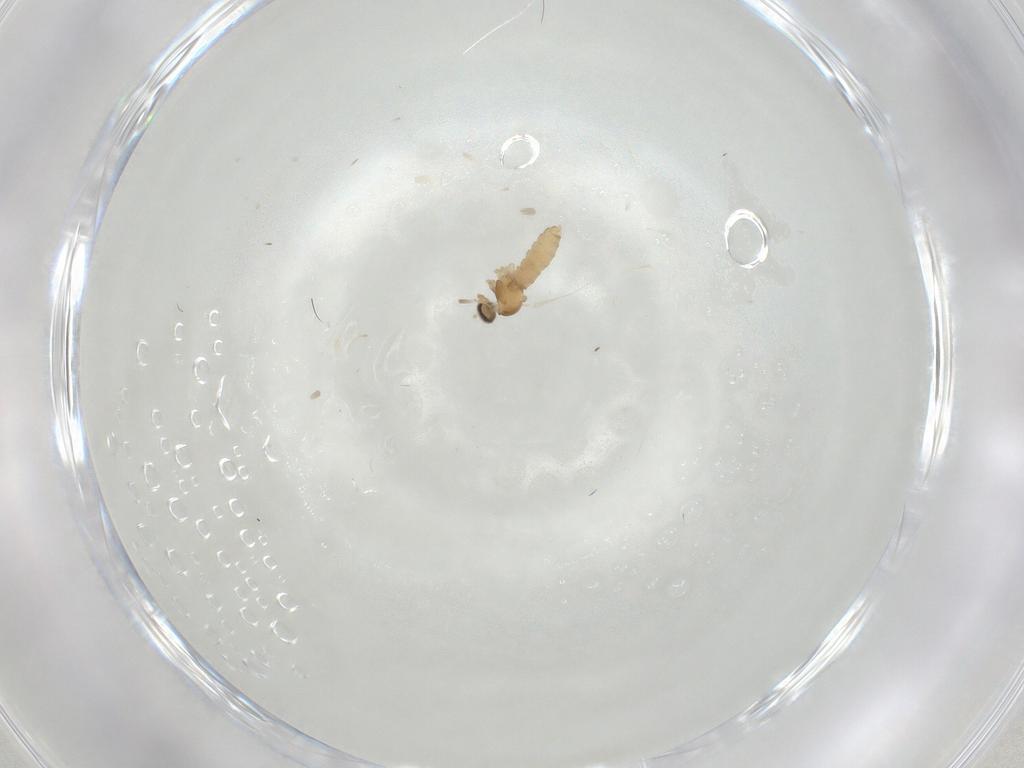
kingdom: Animalia
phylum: Arthropoda
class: Insecta
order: Diptera
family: Cecidomyiidae
